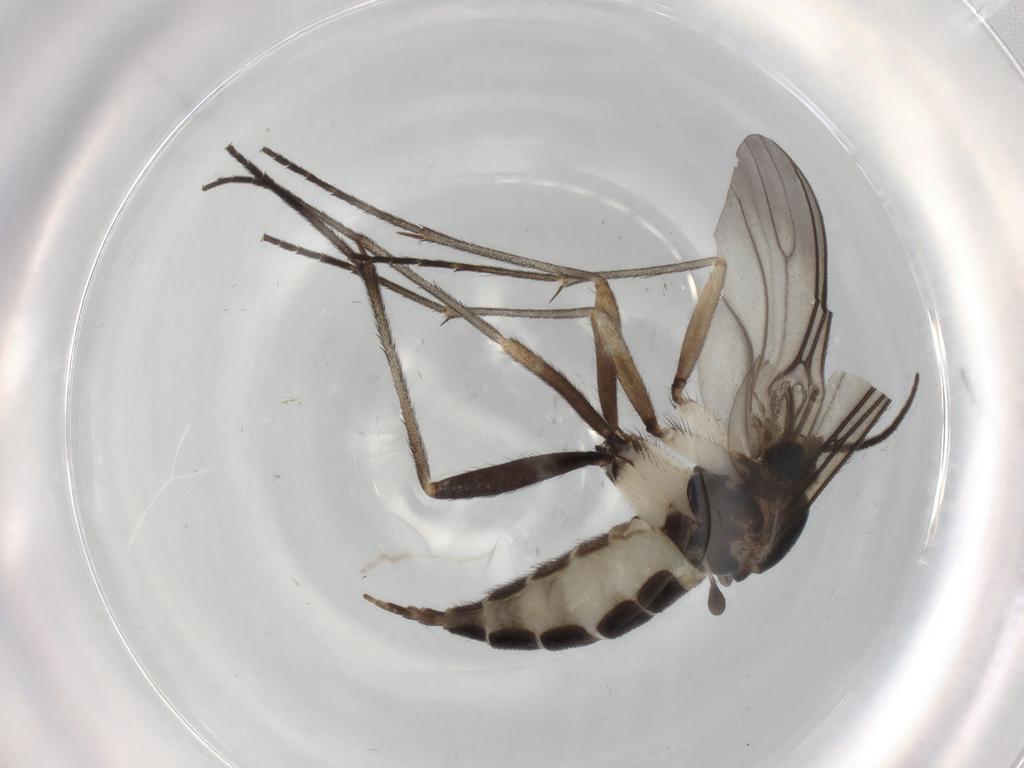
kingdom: Animalia
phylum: Arthropoda
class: Insecta
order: Diptera
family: Sciaridae
